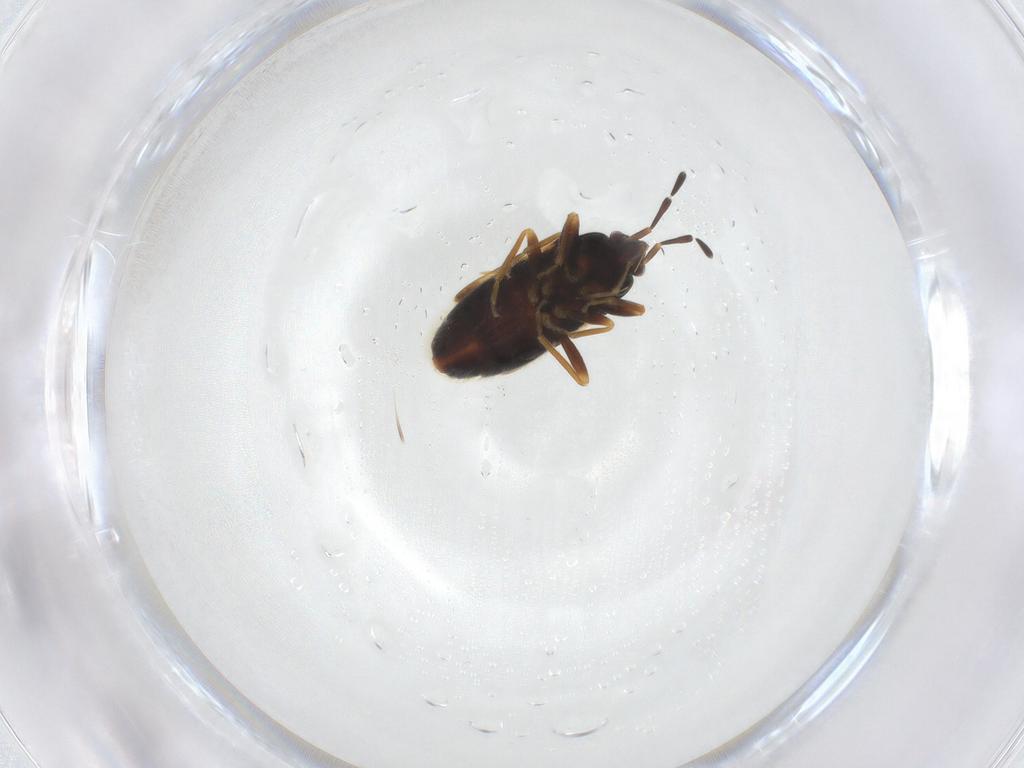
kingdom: Animalia
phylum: Arthropoda
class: Insecta
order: Hemiptera
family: Rhyparochromidae
